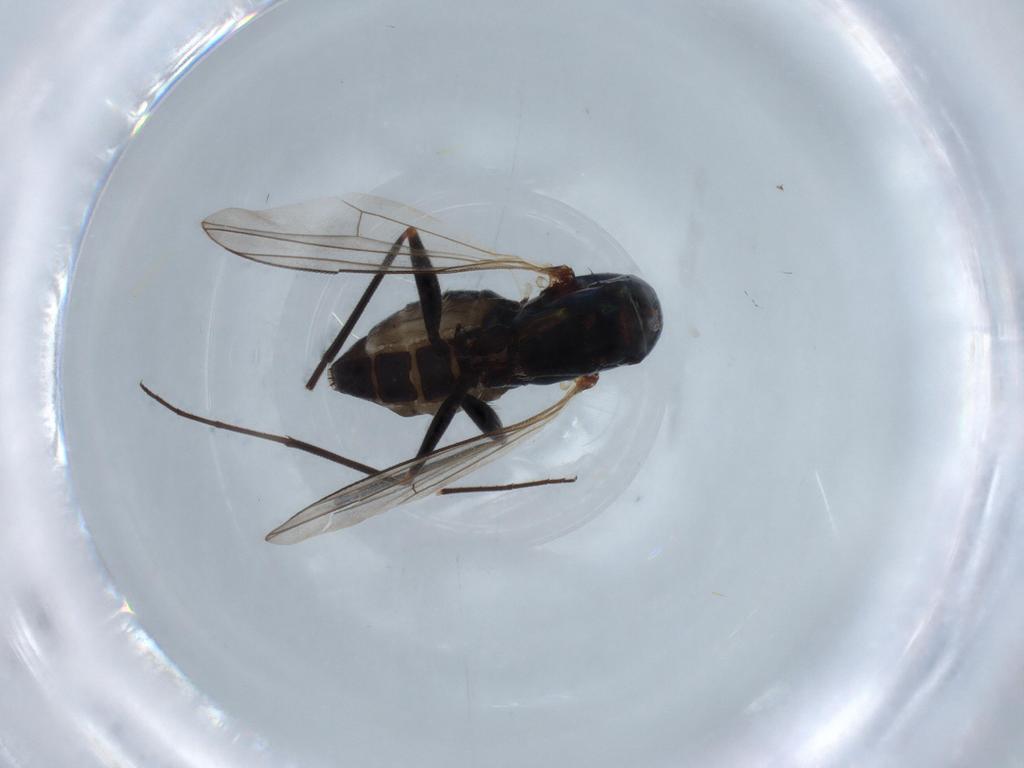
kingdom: Animalia
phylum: Arthropoda
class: Insecta
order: Diptera
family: Dolichopodidae
